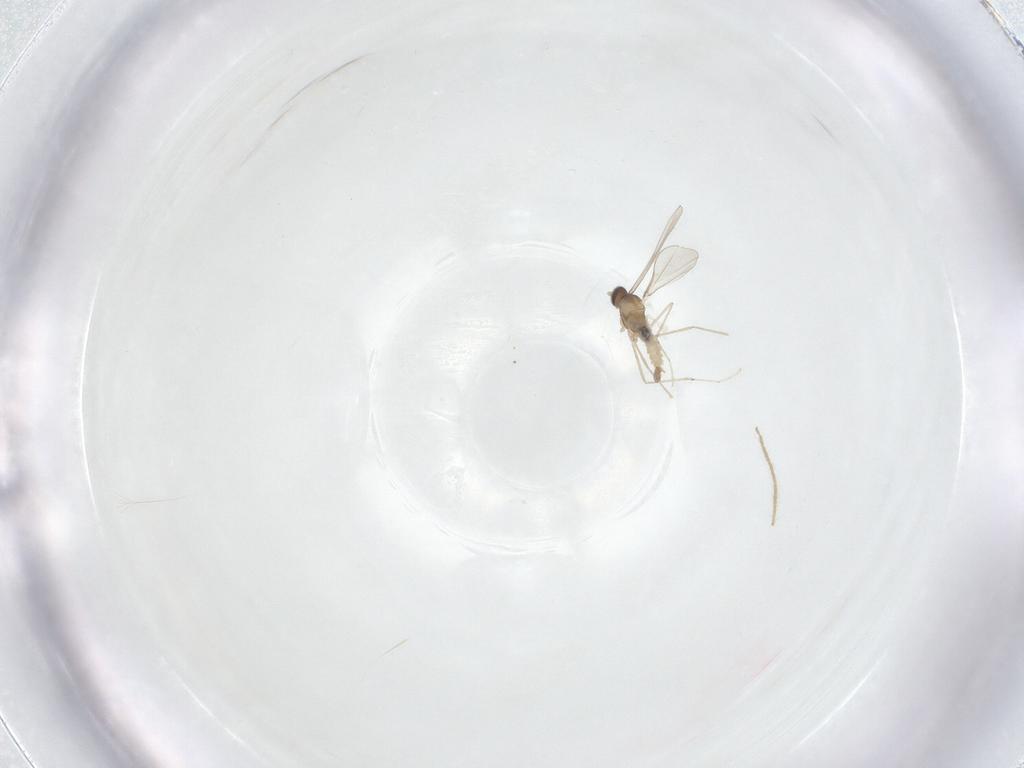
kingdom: Animalia
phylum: Arthropoda
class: Insecta
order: Diptera
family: Cecidomyiidae
